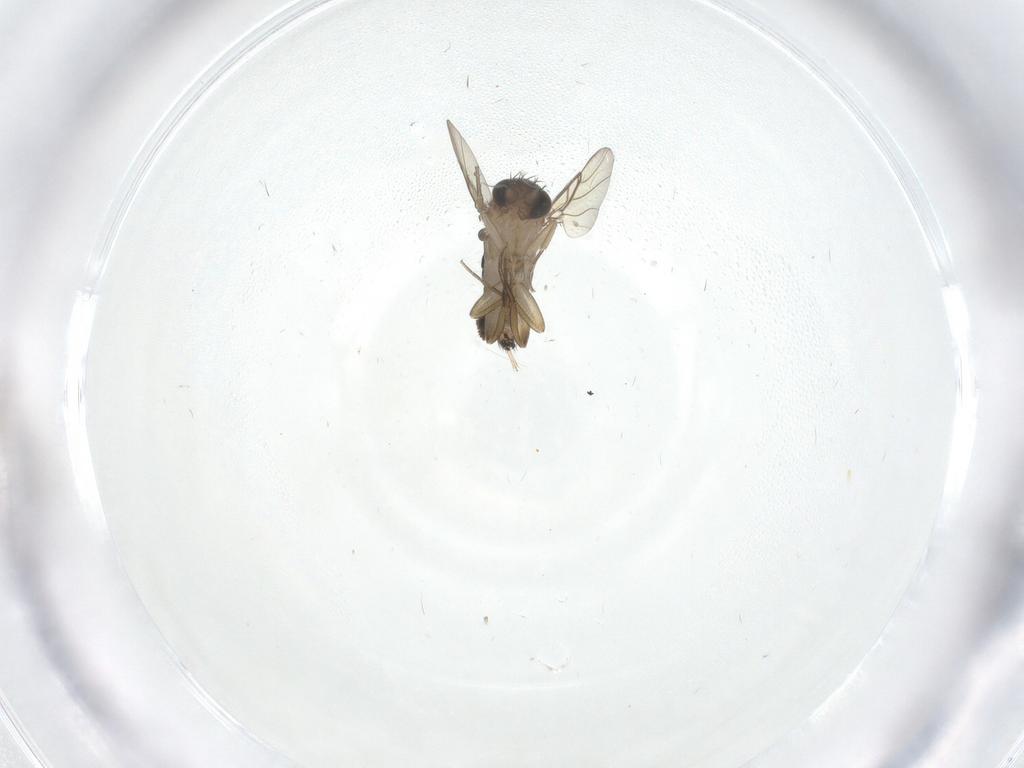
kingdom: Animalia
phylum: Arthropoda
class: Insecta
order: Diptera
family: Phoridae
